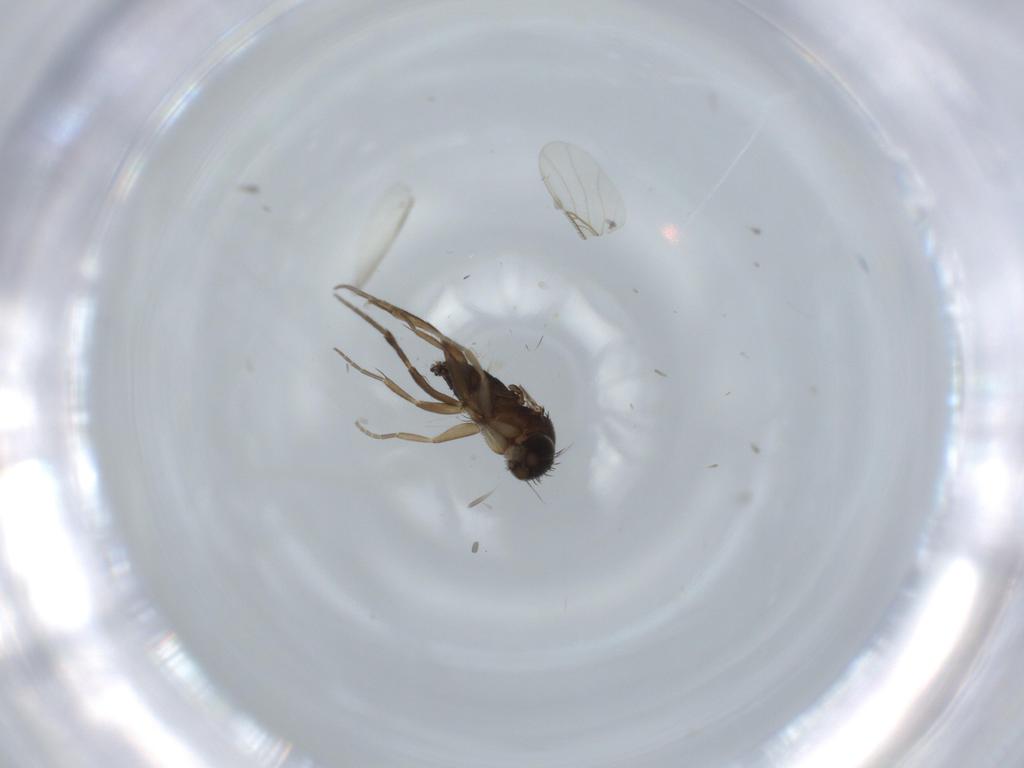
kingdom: Animalia
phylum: Arthropoda
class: Insecta
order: Diptera
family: Phoridae
